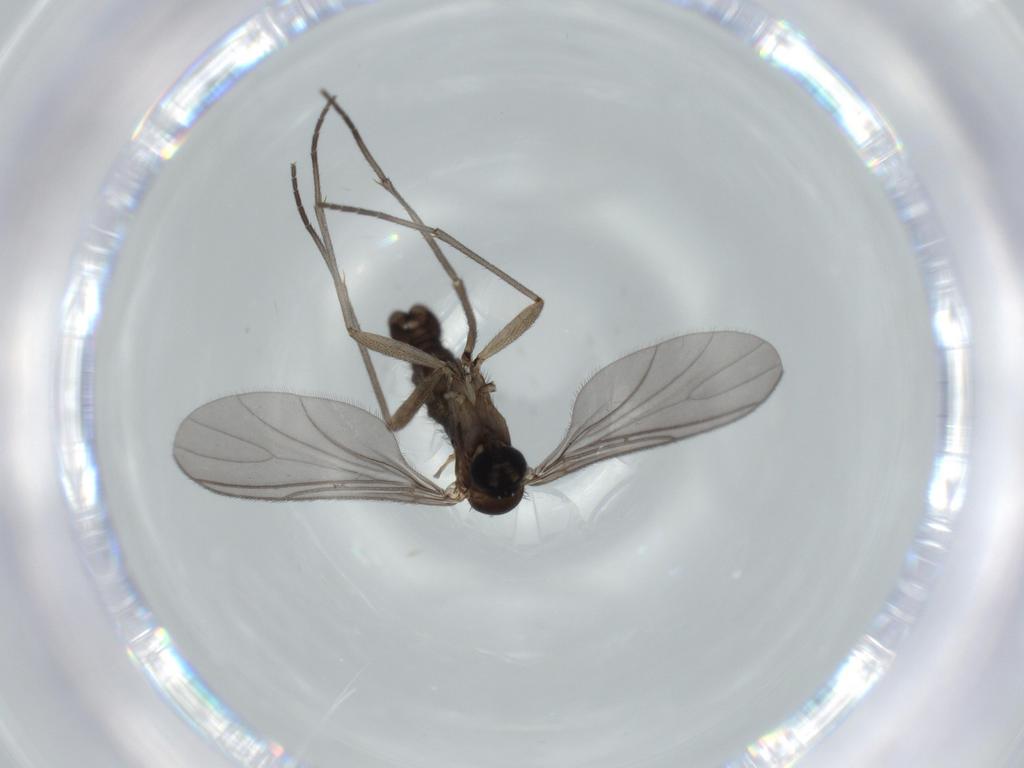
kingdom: Animalia
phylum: Arthropoda
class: Insecta
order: Diptera
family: Sciaridae
